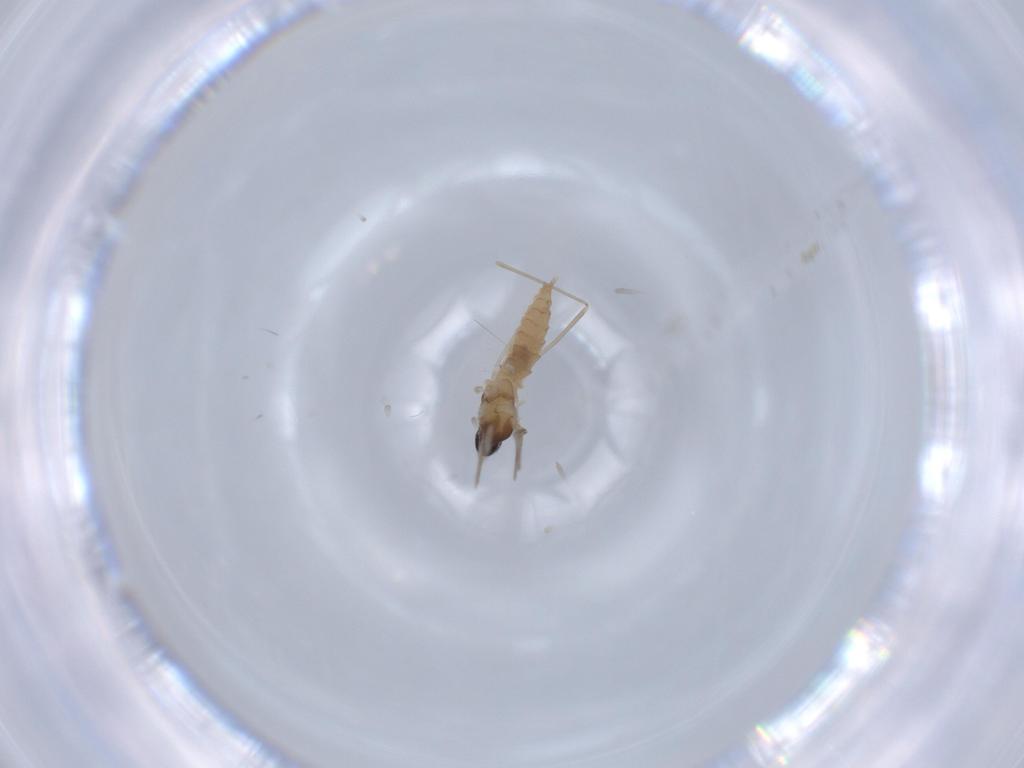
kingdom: Animalia
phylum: Arthropoda
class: Insecta
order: Diptera
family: Cecidomyiidae
